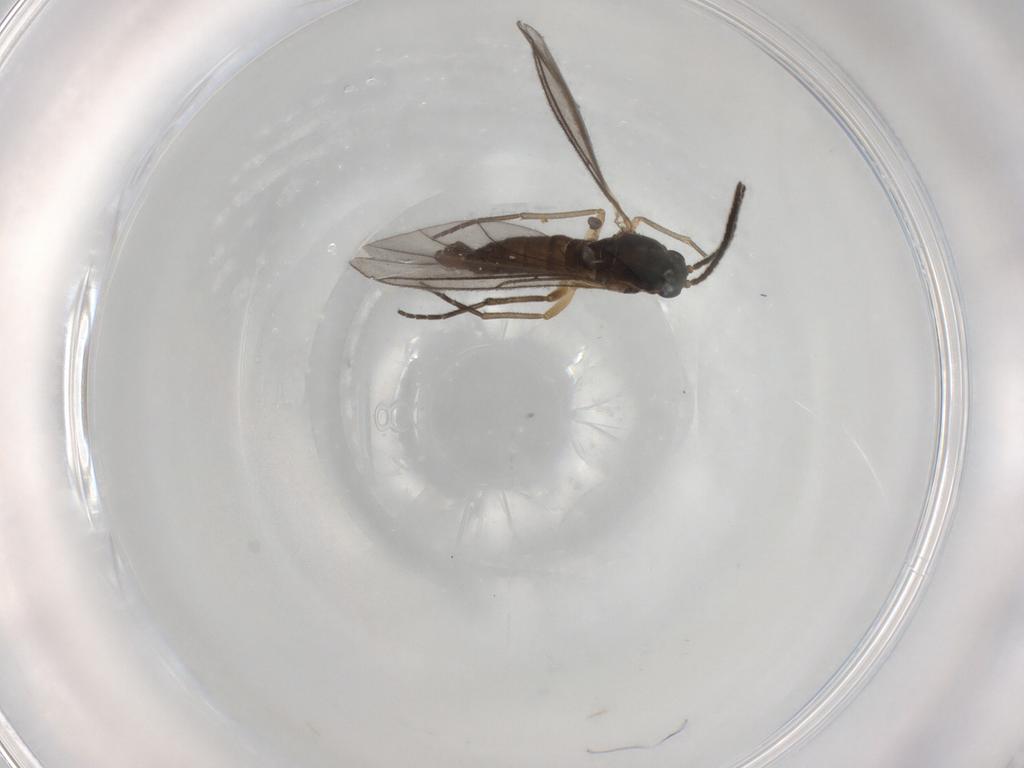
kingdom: Animalia
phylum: Arthropoda
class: Insecta
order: Diptera
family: Sciaridae
